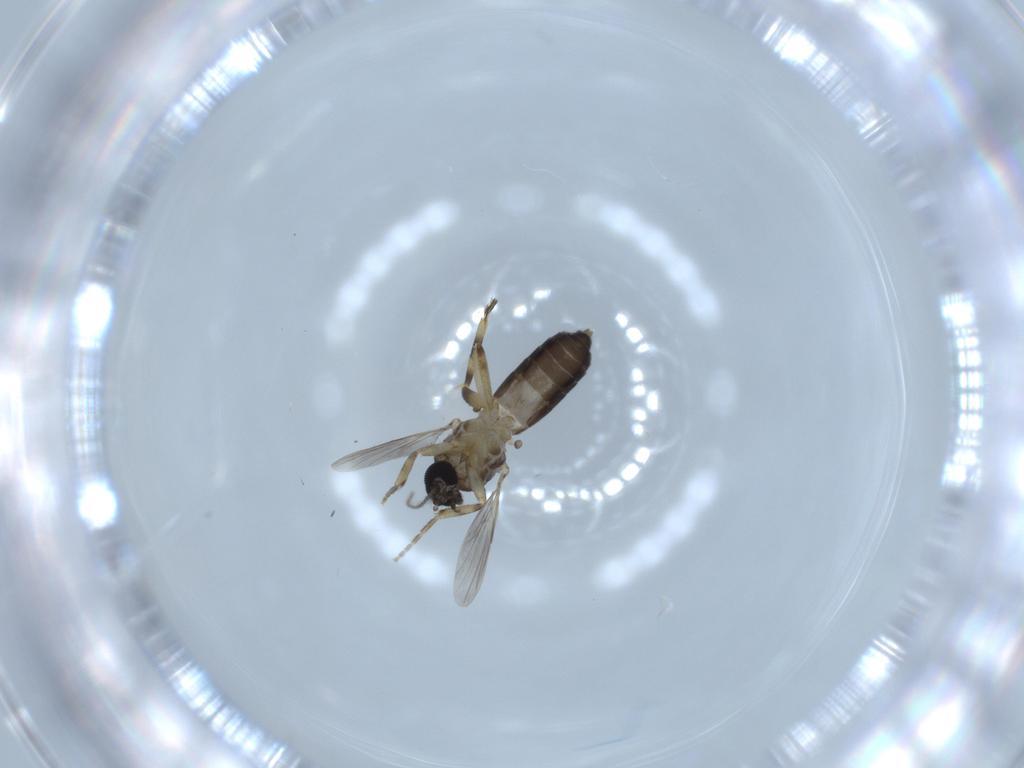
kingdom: Animalia
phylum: Arthropoda
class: Insecta
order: Diptera
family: Ceratopogonidae
